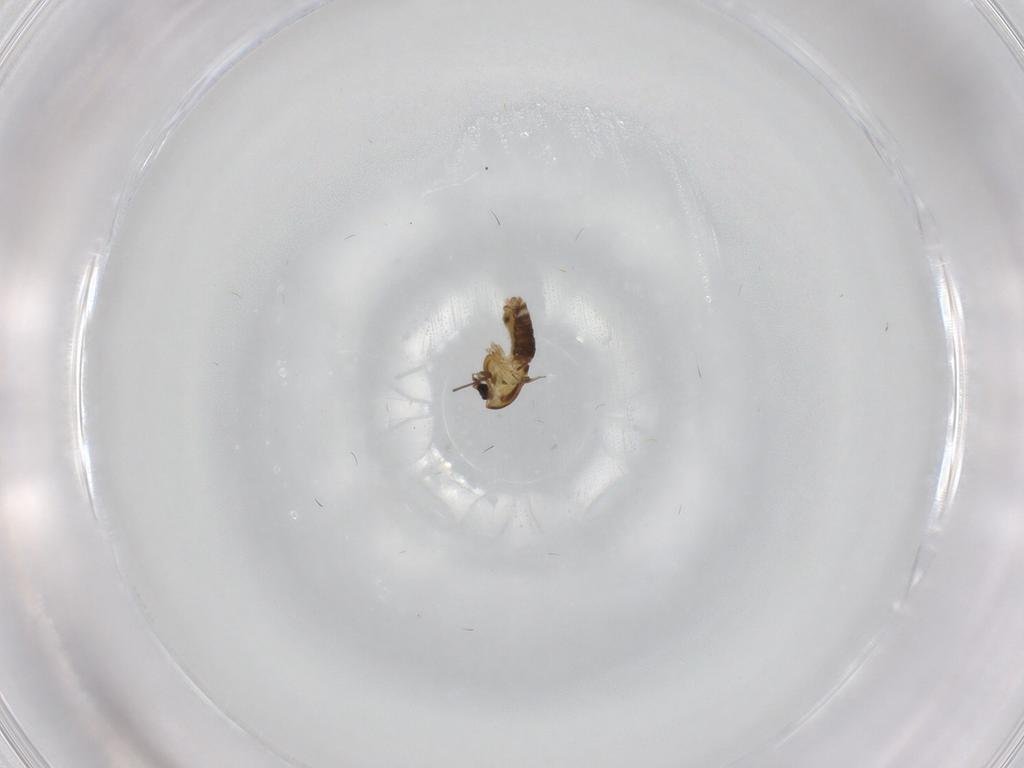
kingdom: Animalia
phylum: Arthropoda
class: Insecta
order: Diptera
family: Chironomidae
